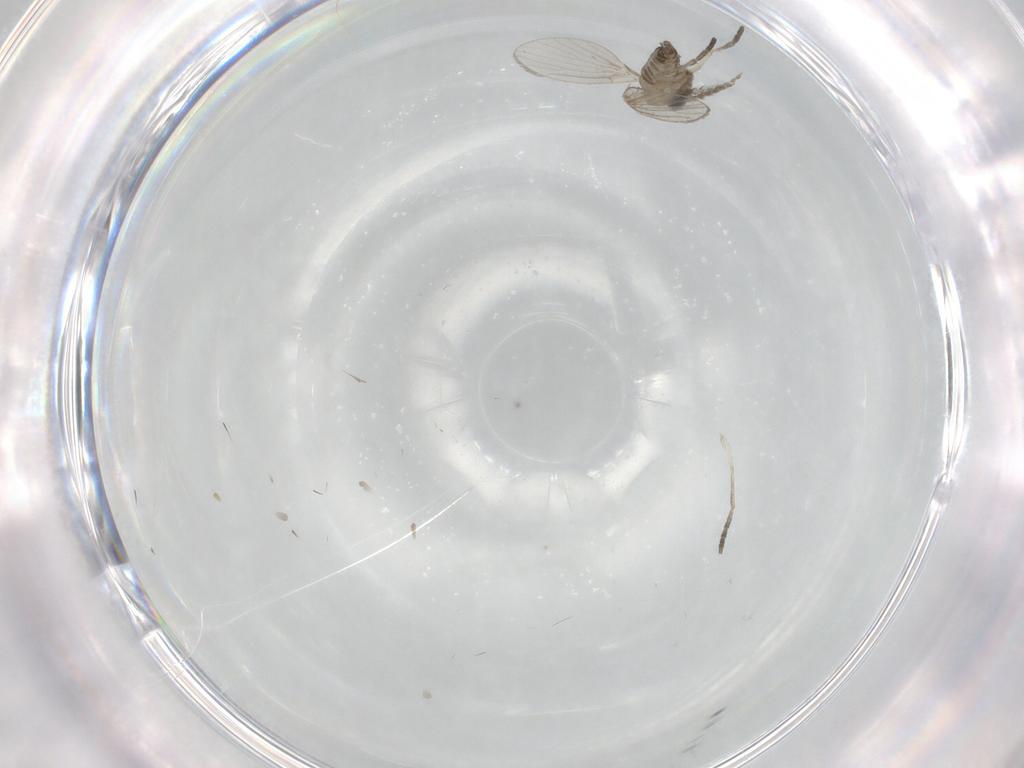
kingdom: Animalia
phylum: Arthropoda
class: Insecta
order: Diptera
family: Psychodidae
